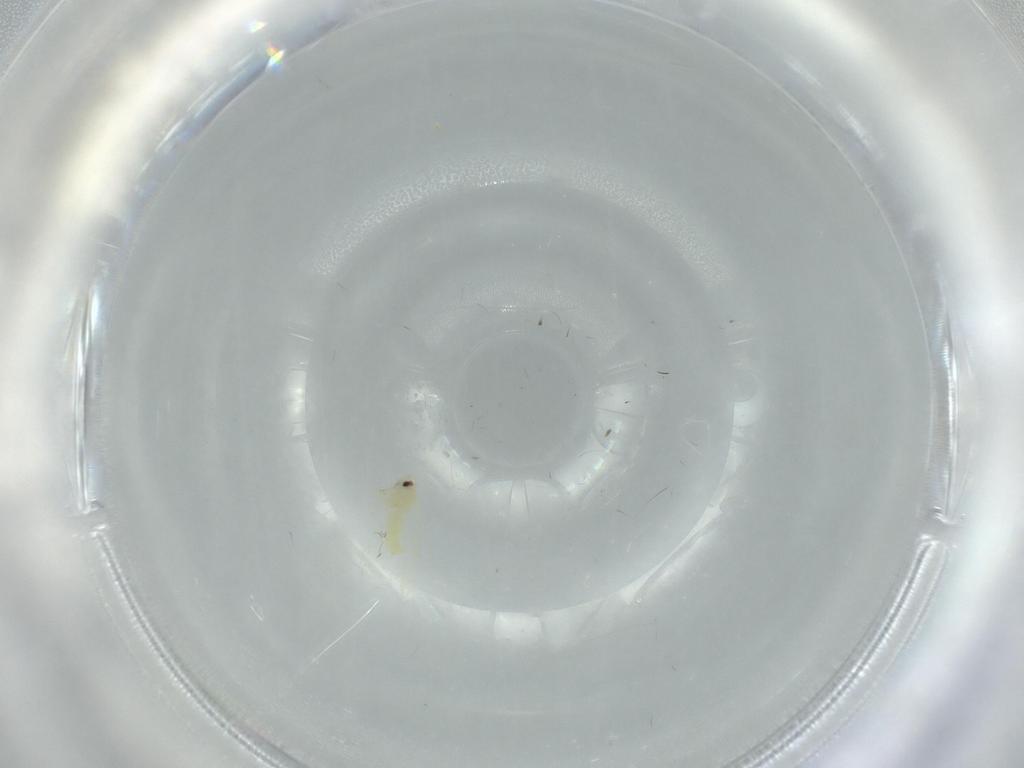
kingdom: Animalia
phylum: Arthropoda
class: Insecta
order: Hemiptera
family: Aleyrodidae
